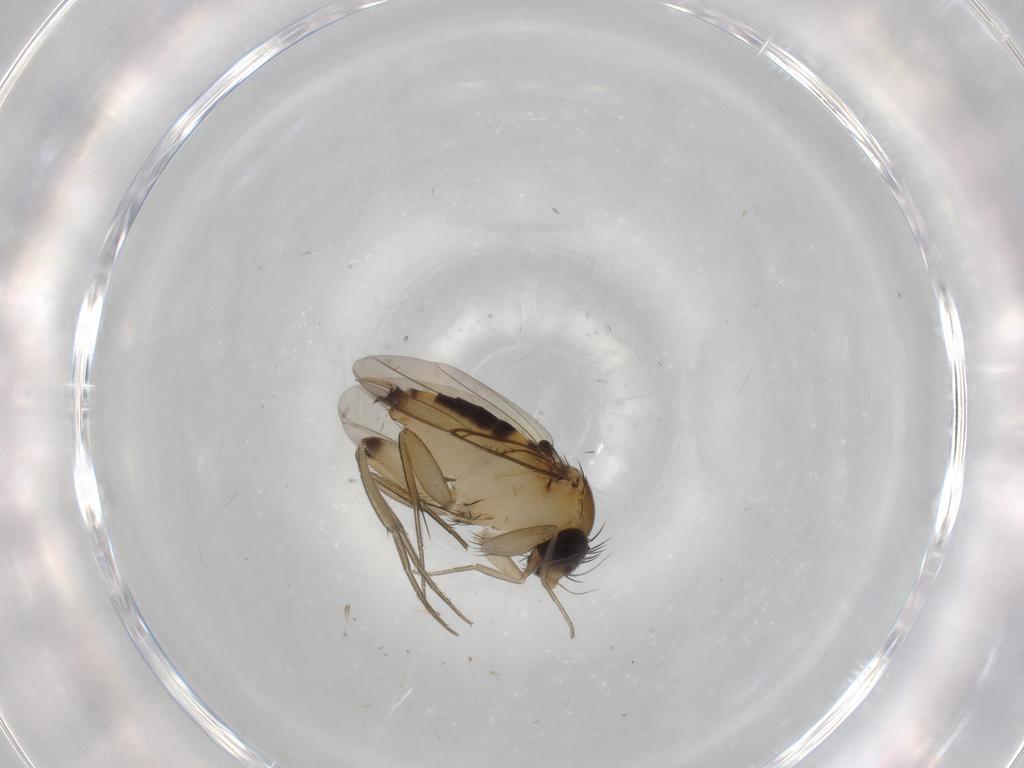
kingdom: Animalia
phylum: Arthropoda
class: Insecta
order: Diptera
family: Phoridae
